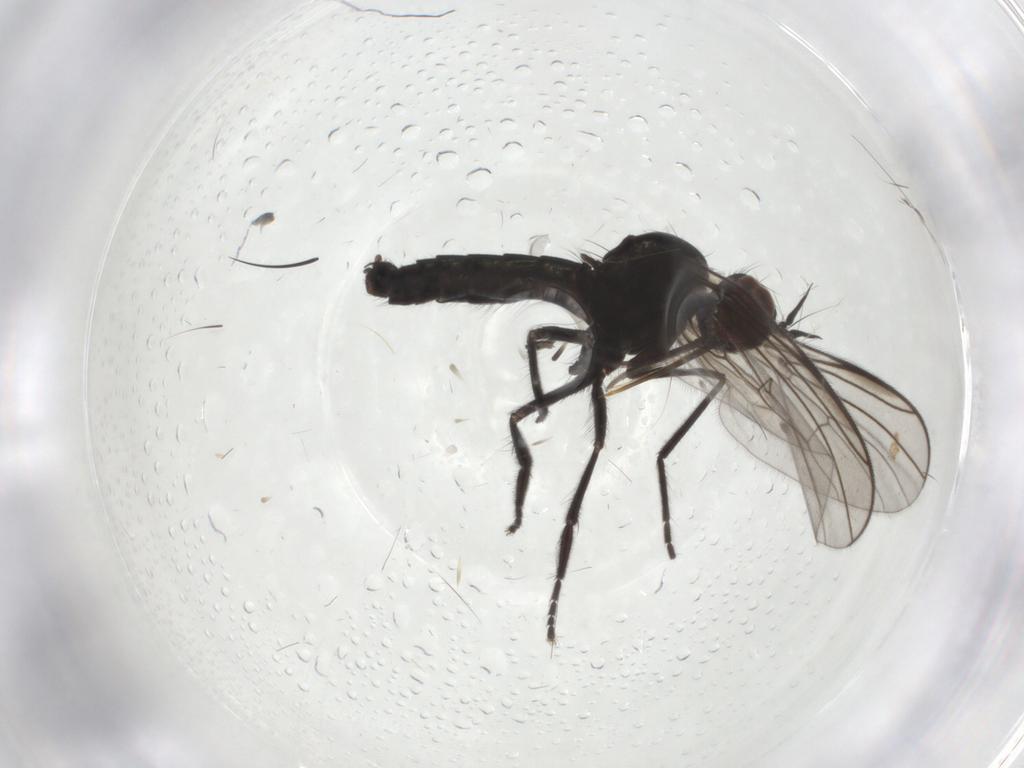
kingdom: Animalia
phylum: Arthropoda
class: Insecta
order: Diptera
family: Empididae
